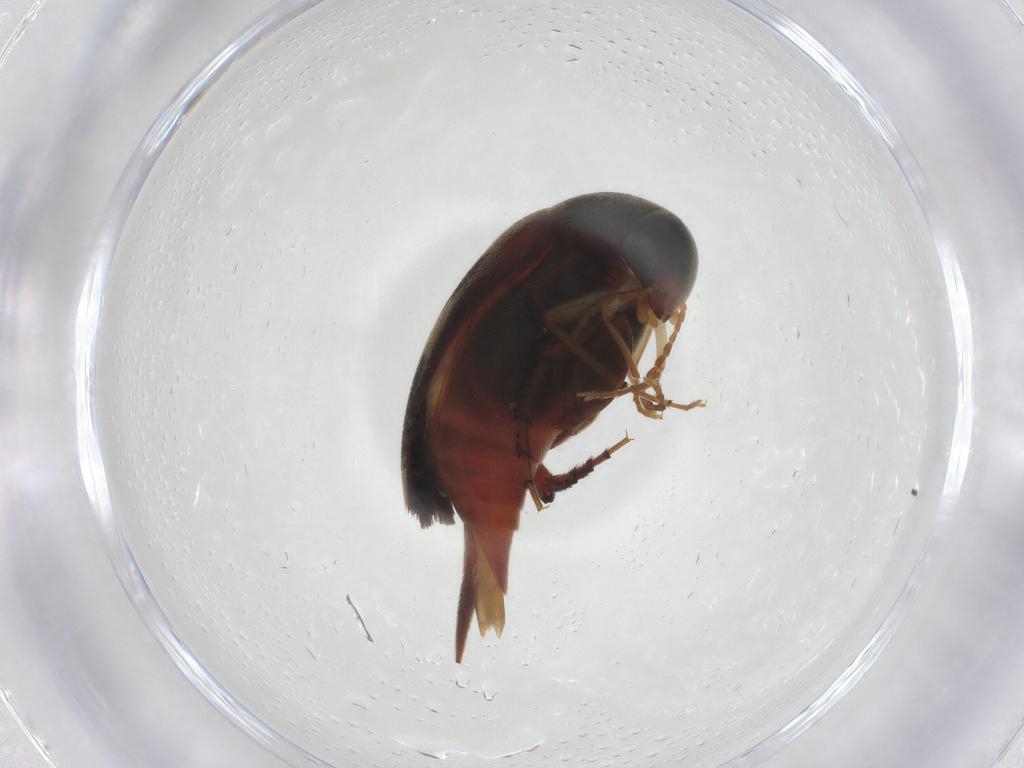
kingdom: Animalia
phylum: Arthropoda
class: Insecta
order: Coleoptera
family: Mordellidae
